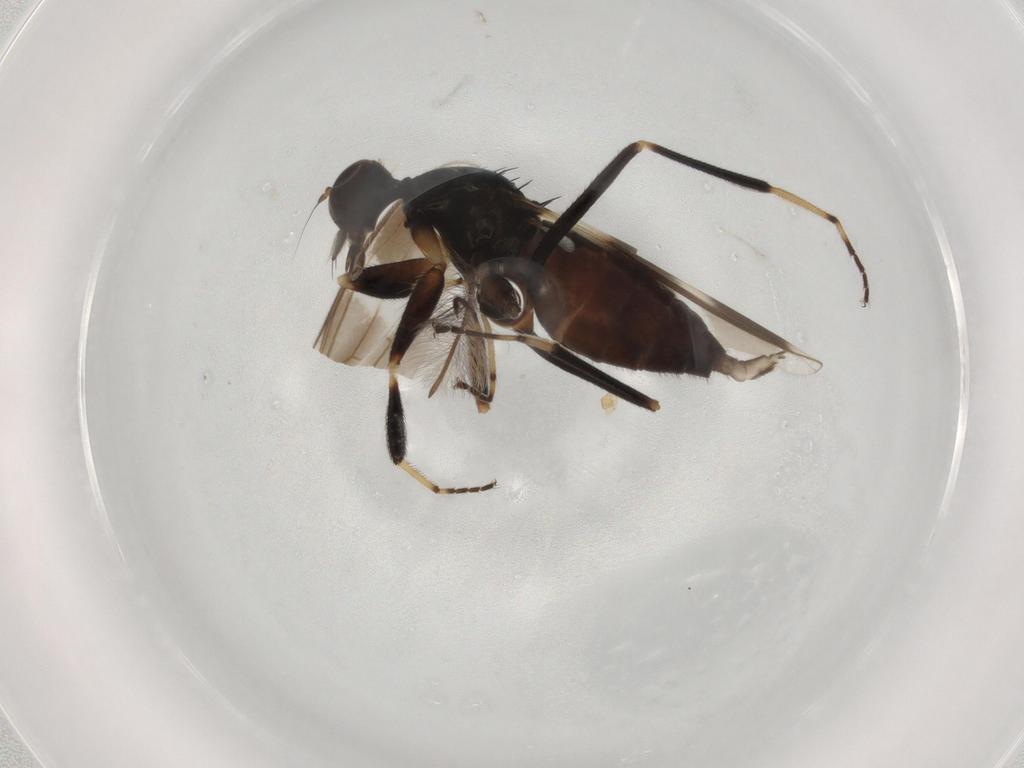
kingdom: Animalia
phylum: Arthropoda
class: Insecta
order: Diptera
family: Hybotidae
